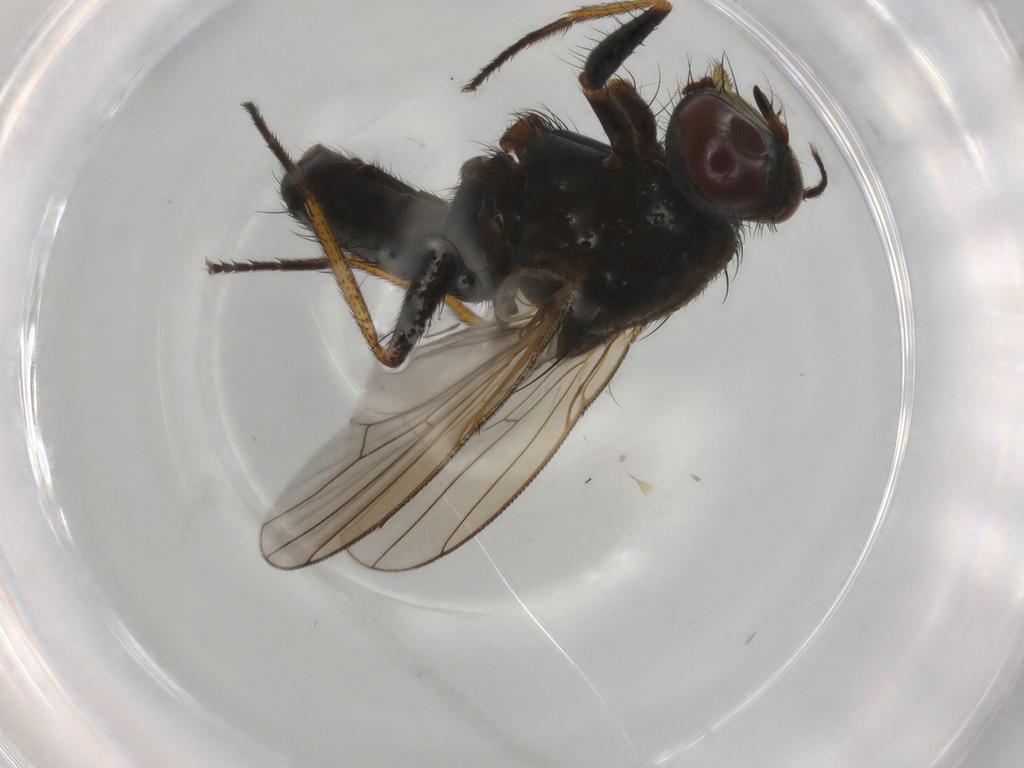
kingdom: Animalia
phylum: Arthropoda
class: Insecta
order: Diptera
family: Muscidae
